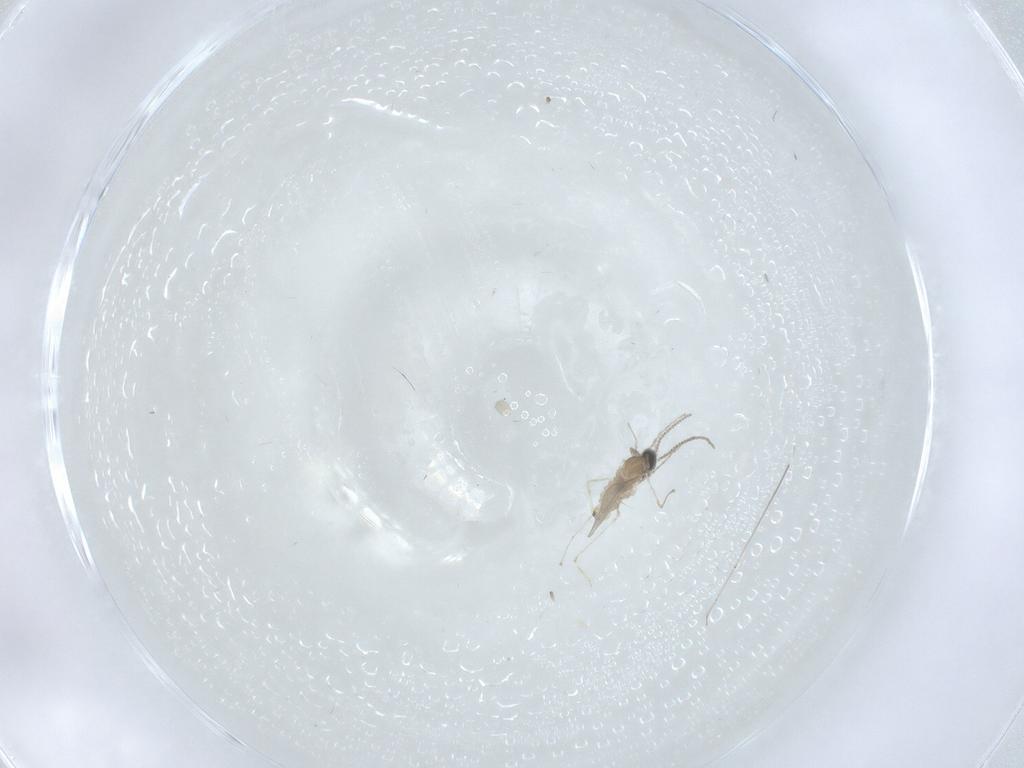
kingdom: Animalia
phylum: Arthropoda
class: Insecta
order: Diptera
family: Cecidomyiidae
